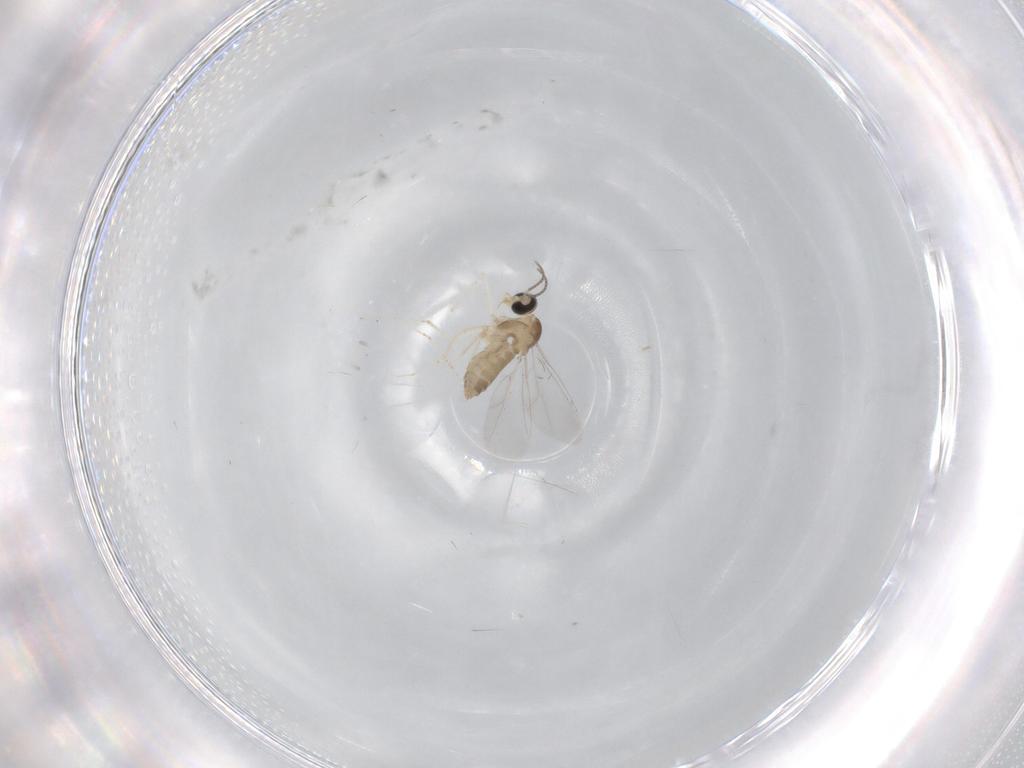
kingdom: Animalia
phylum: Arthropoda
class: Insecta
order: Diptera
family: Cecidomyiidae
